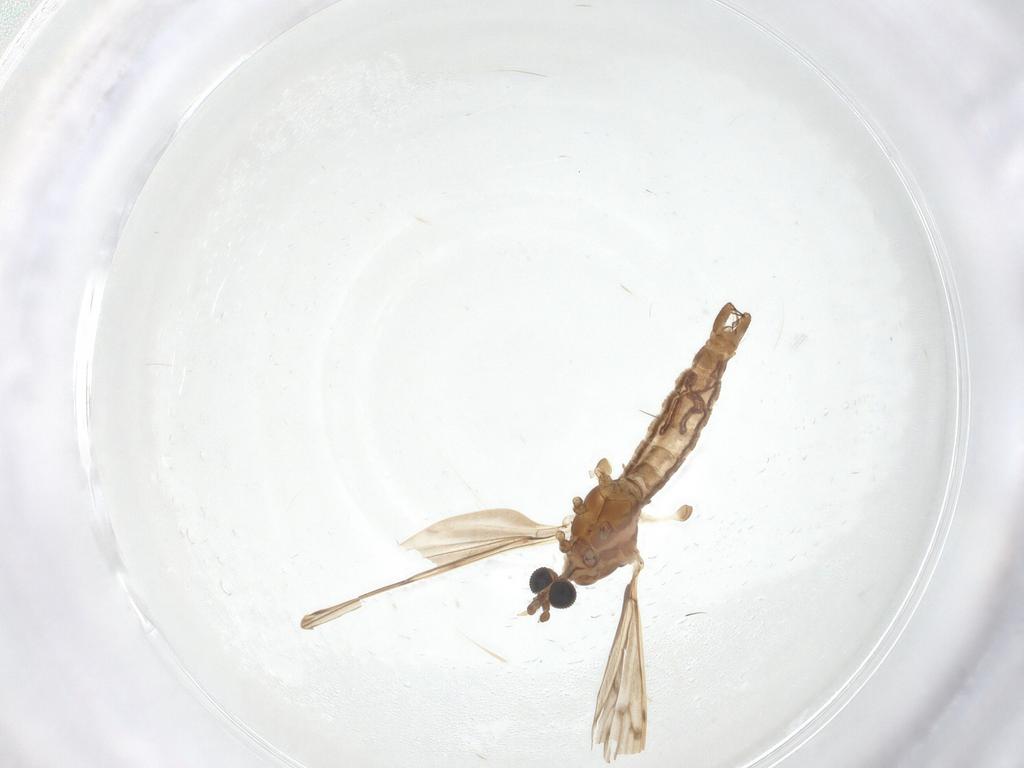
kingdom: Animalia
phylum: Arthropoda
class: Insecta
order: Diptera
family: Limoniidae
